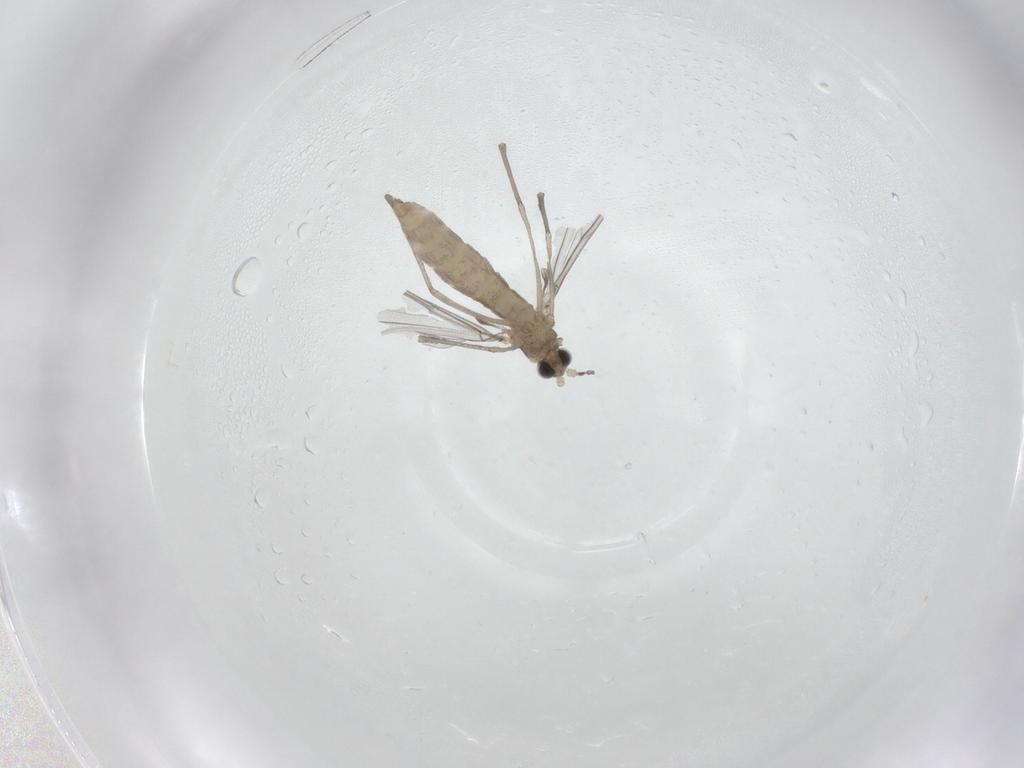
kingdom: Animalia
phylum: Arthropoda
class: Insecta
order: Diptera
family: Cecidomyiidae
